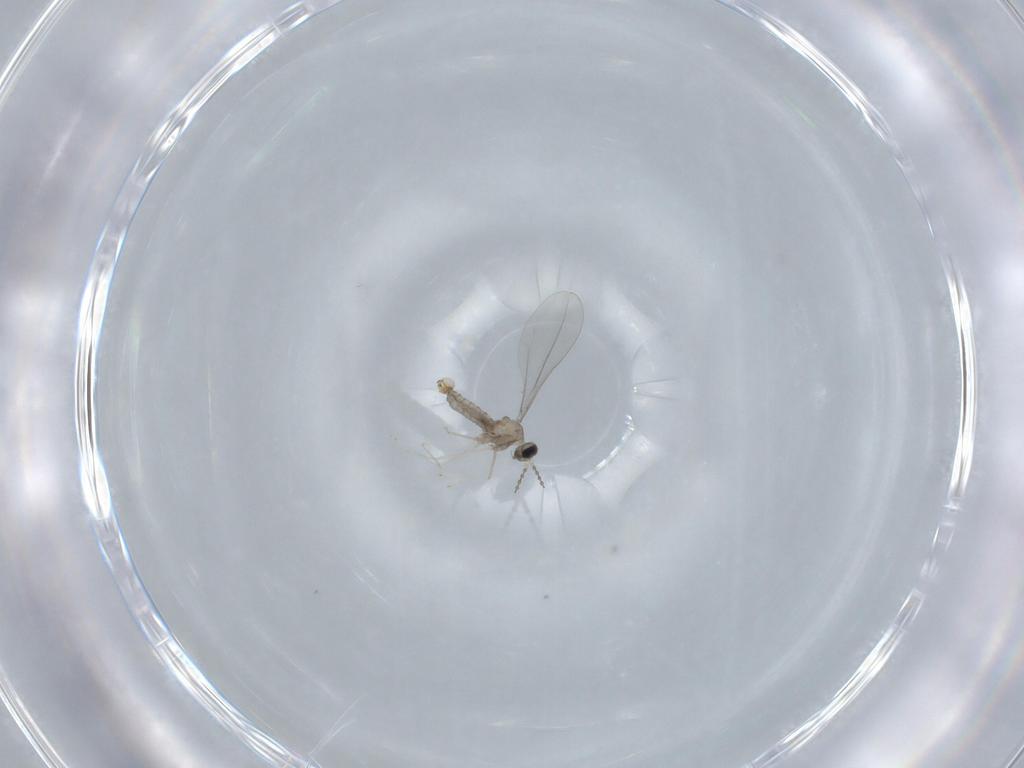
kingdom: Animalia
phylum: Arthropoda
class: Insecta
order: Diptera
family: Cecidomyiidae
